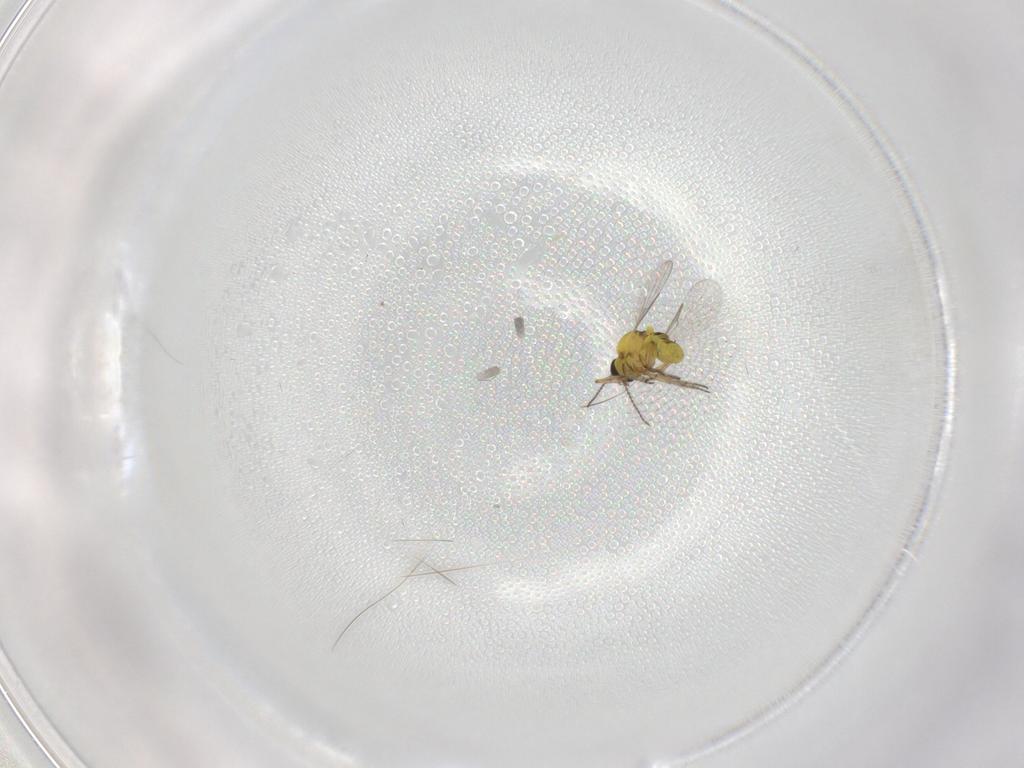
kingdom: Animalia
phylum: Arthropoda
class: Insecta
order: Diptera
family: Ceratopogonidae
